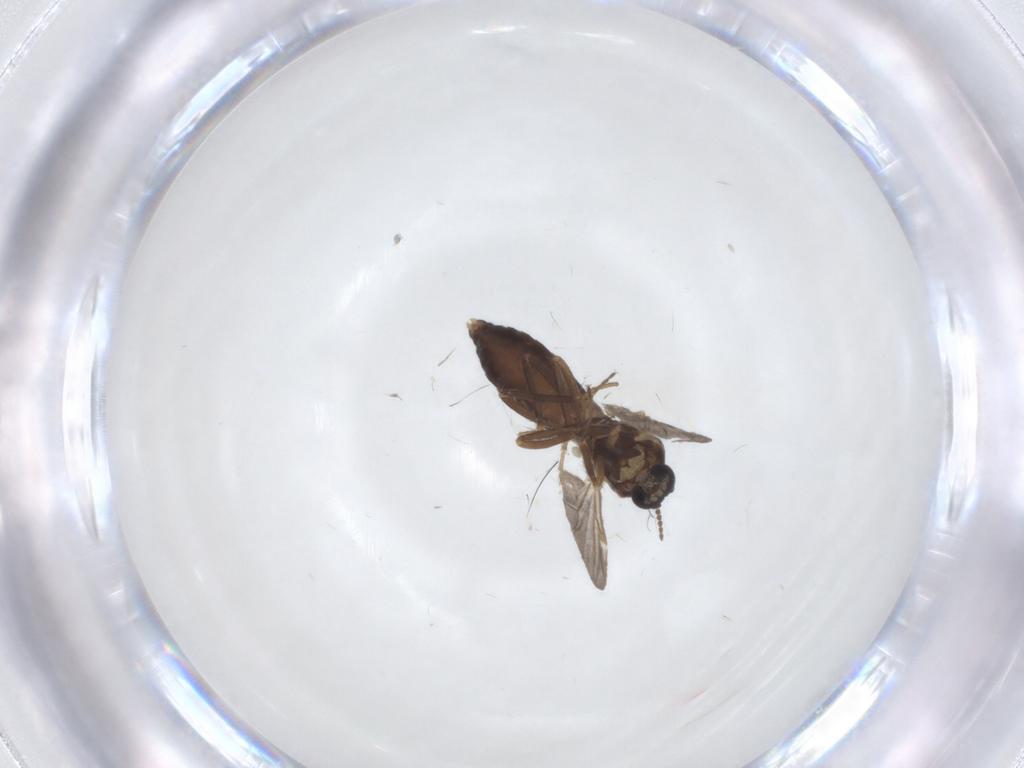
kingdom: Animalia
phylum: Arthropoda
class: Insecta
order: Diptera
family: Ceratopogonidae
